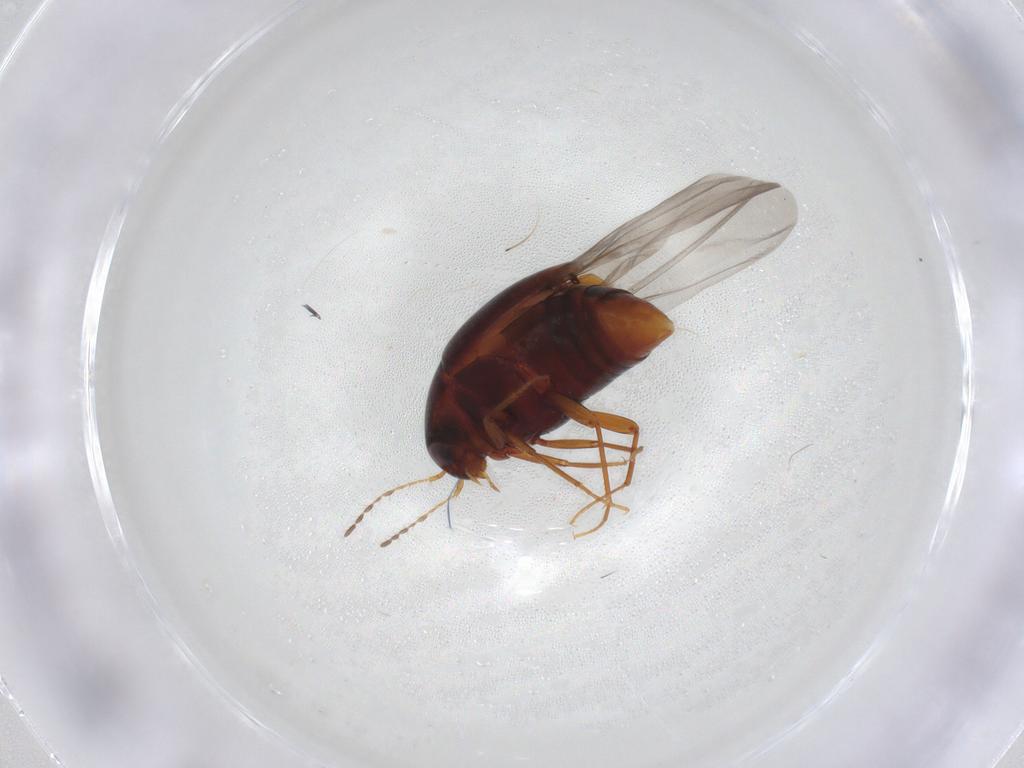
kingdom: Animalia
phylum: Arthropoda
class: Insecta
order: Coleoptera
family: Staphylinidae
